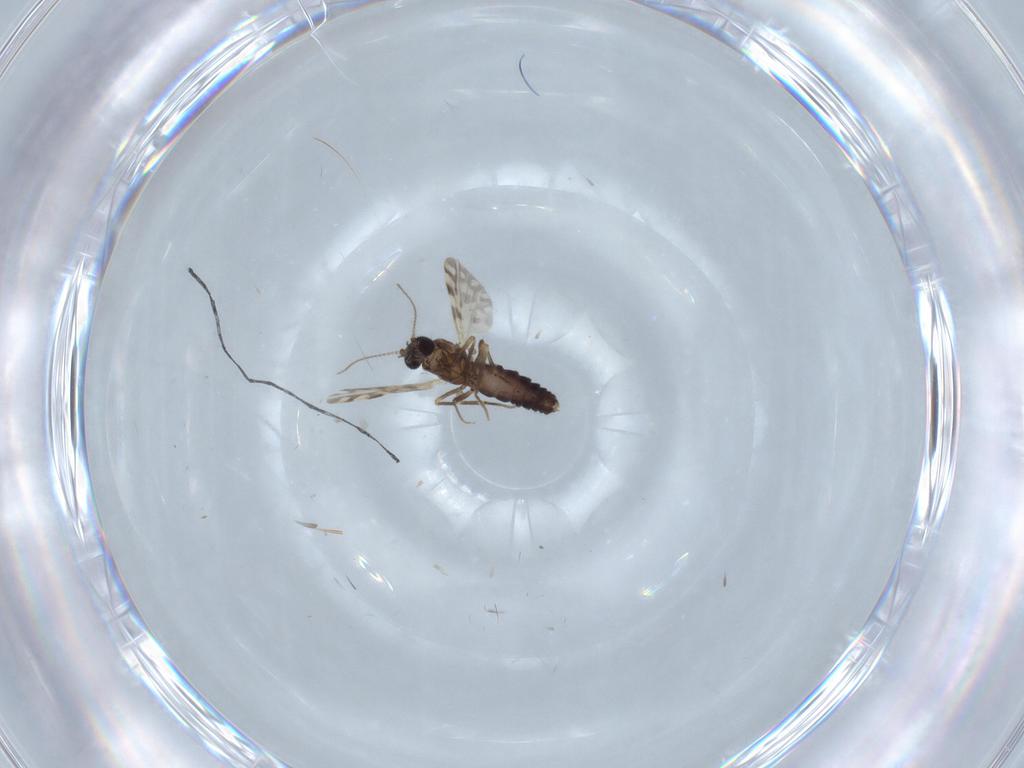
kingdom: Animalia
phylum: Arthropoda
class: Insecta
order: Diptera
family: Ceratopogonidae
